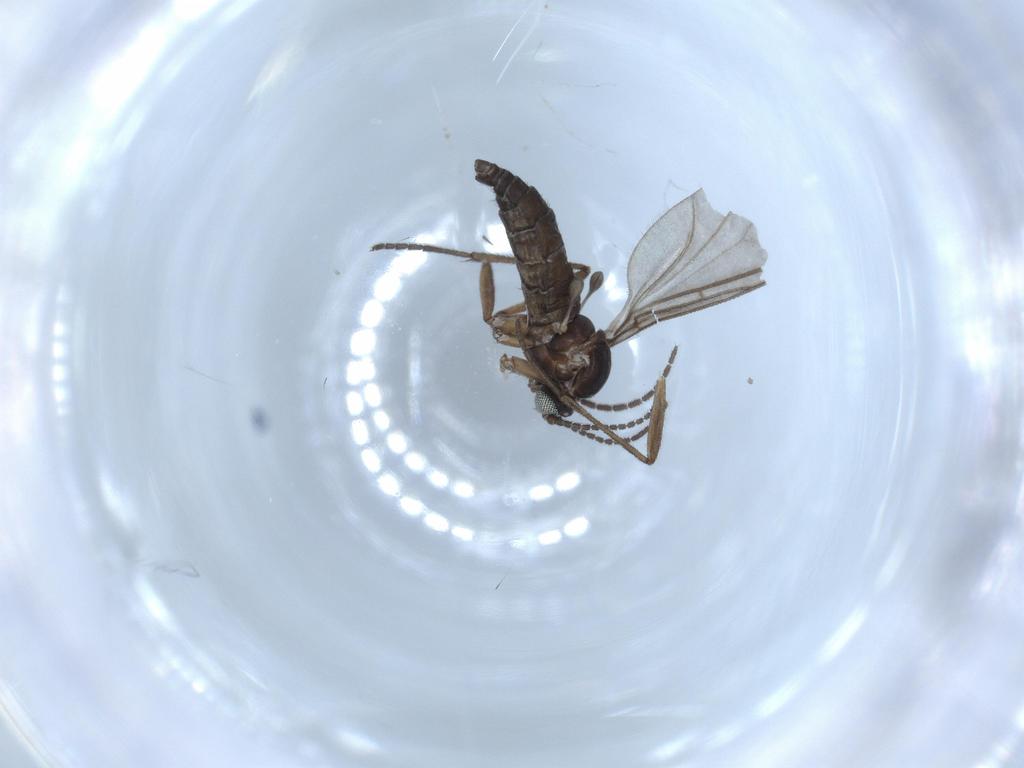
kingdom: Animalia
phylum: Arthropoda
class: Insecta
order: Diptera
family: Sciaridae
